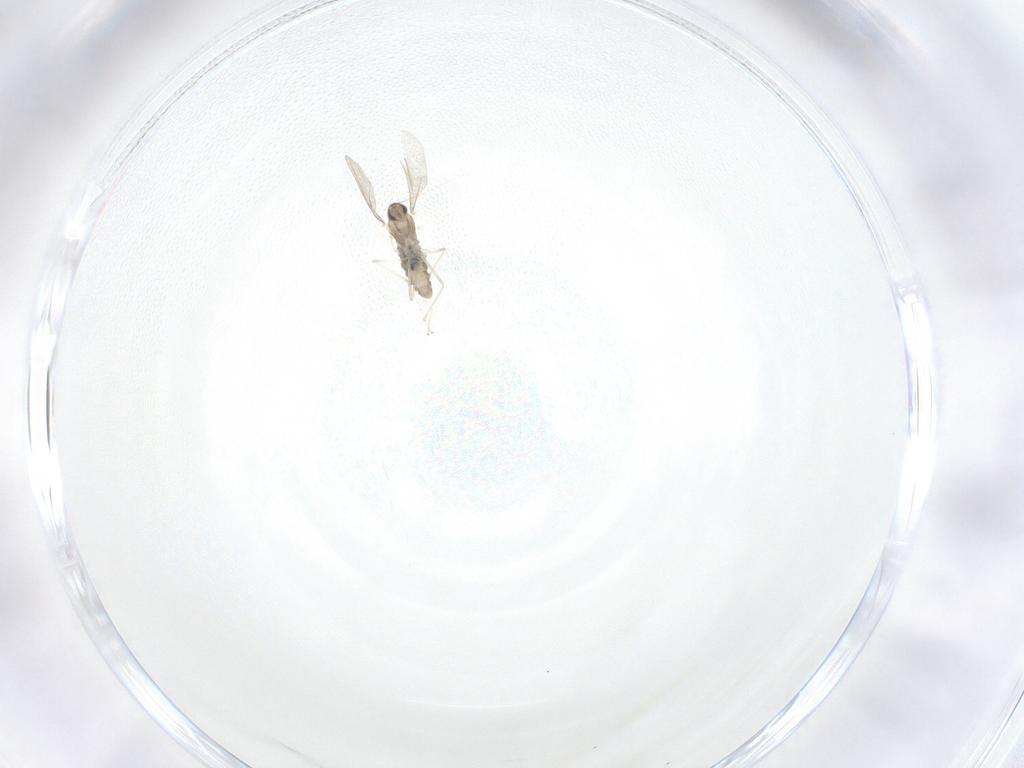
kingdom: Animalia
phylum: Arthropoda
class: Insecta
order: Diptera
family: Cecidomyiidae
